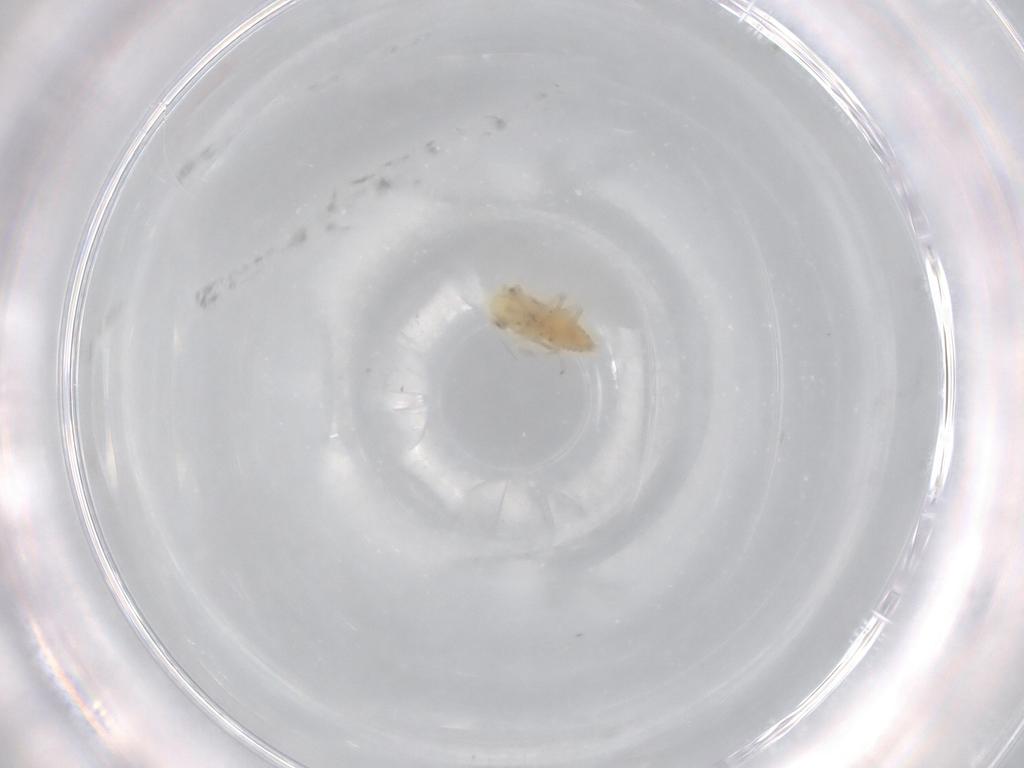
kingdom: Animalia
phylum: Arthropoda
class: Insecta
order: Hemiptera
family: Cicadellidae
